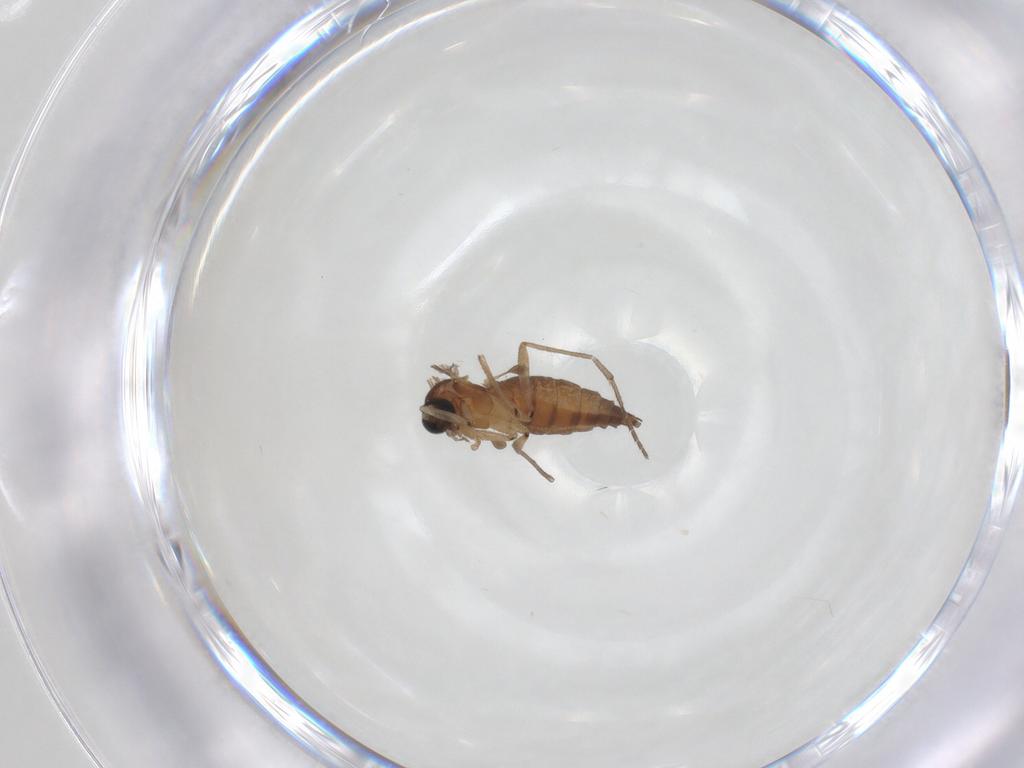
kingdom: Animalia
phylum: Arthropoda
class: Insecta
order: Diptera
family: Sciaridae
